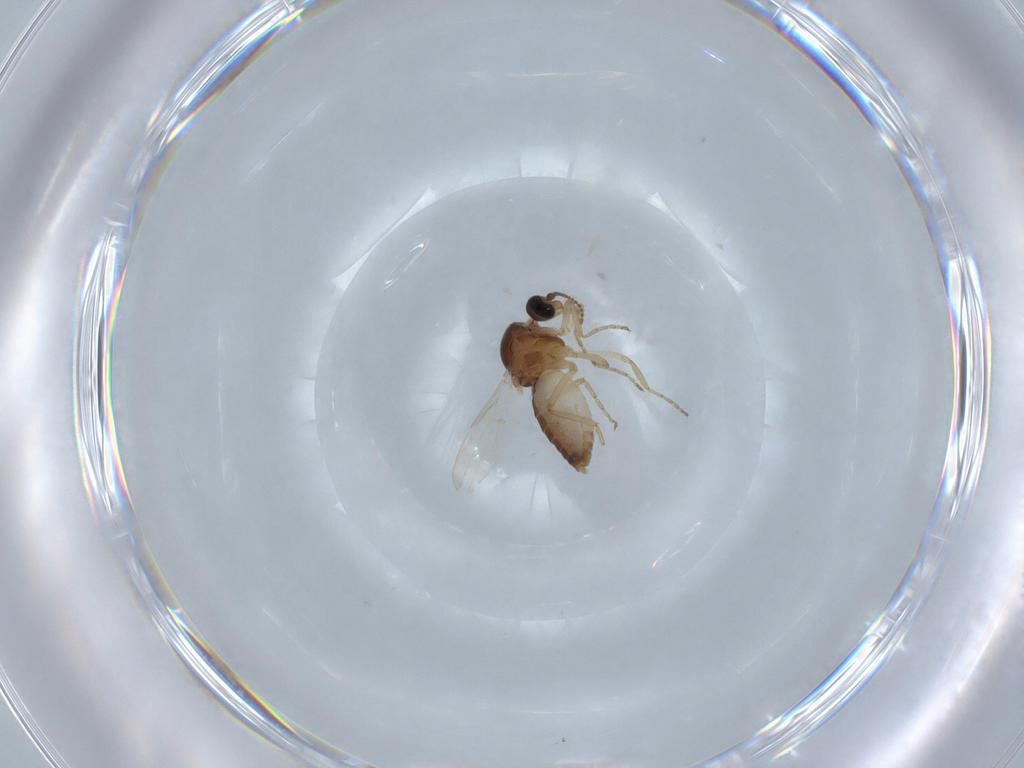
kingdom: Animalia
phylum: Arthropoda
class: Insecta
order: Diptera
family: Ceratopogonidae
